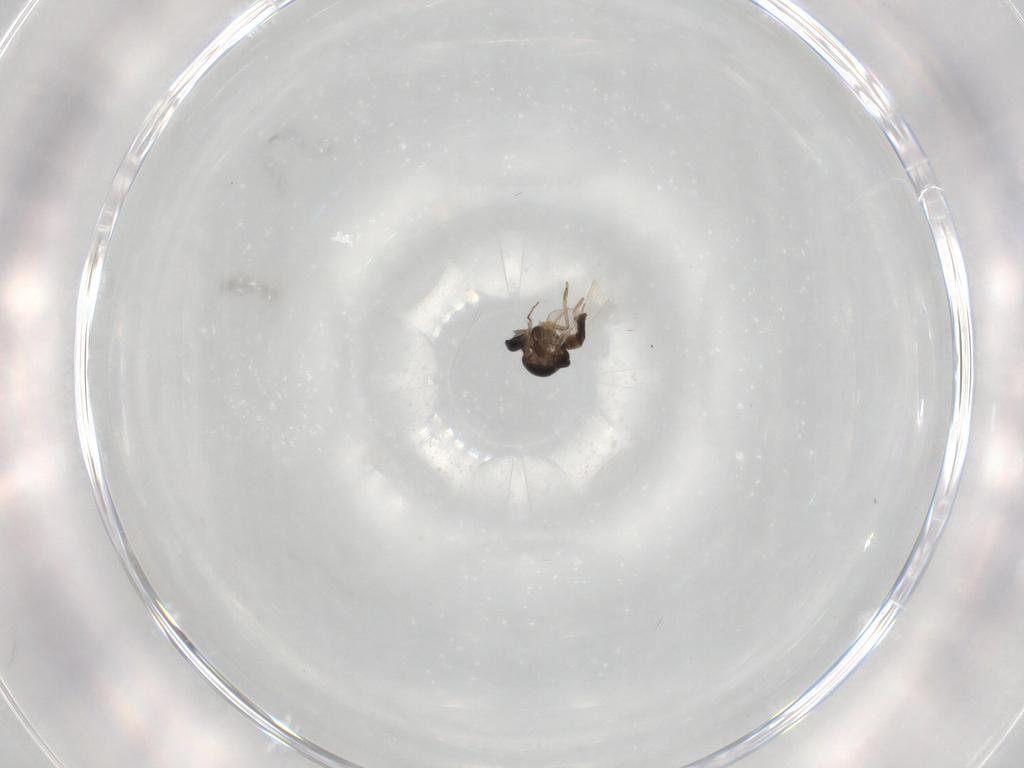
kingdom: Animalia
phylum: Arthropoda
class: Insecta
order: Diptera
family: Ceratopogonidae
